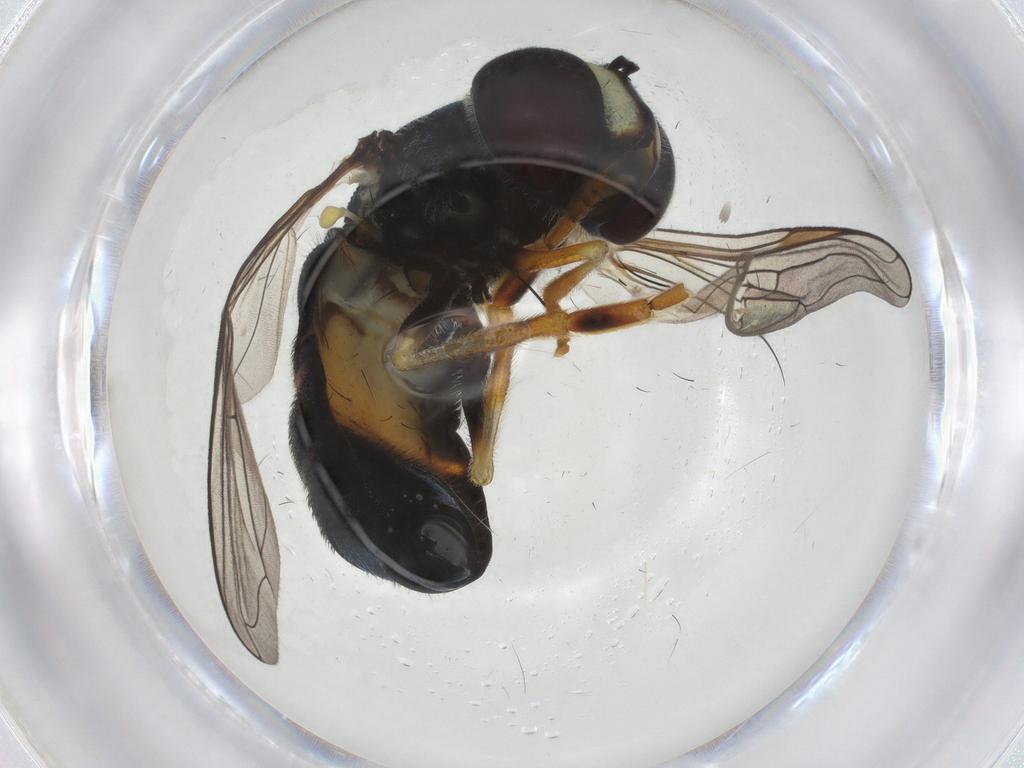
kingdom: Animalia
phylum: Arthropoda
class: Insecta
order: Diptera
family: Syrphidae
